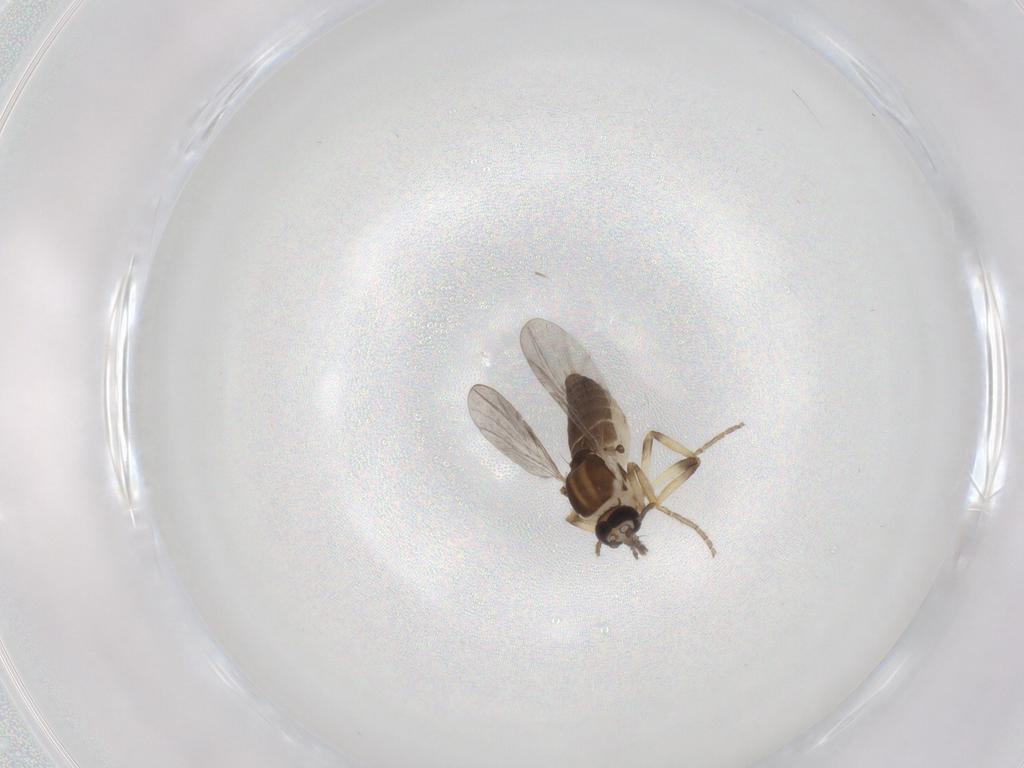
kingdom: Animalia
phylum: Arthropoda
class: Insecta
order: Diptera
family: Ceratopogonidae
